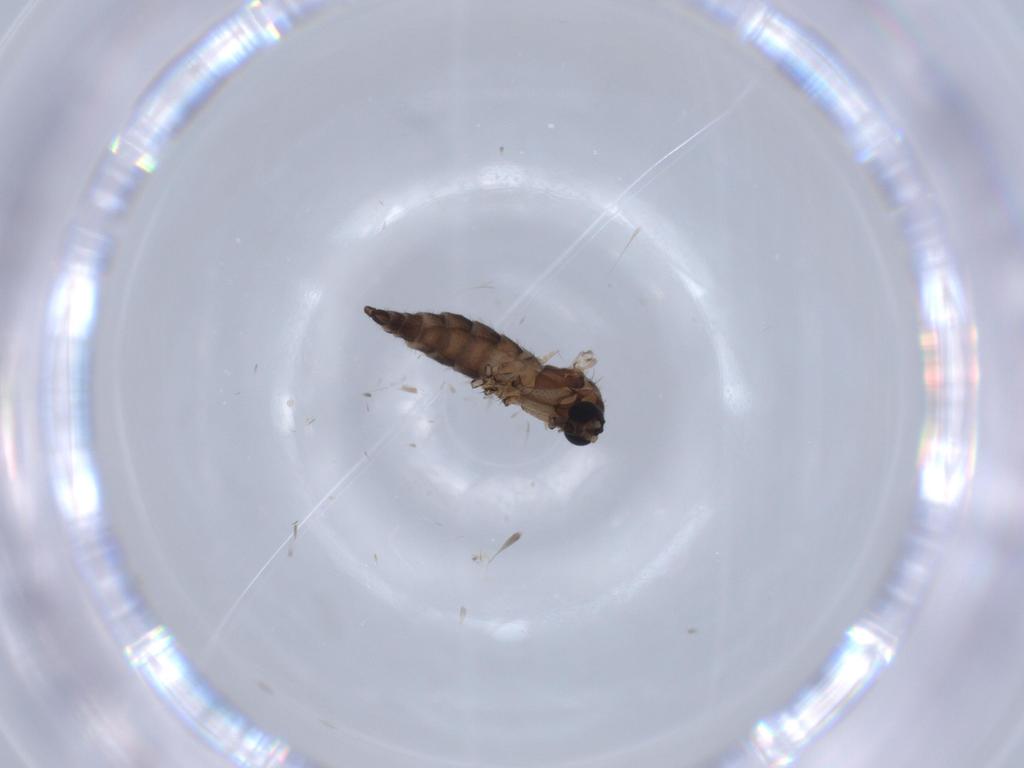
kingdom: Animalia
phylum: Arthropoda
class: Insecta
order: Diptera
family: Sciaridae
